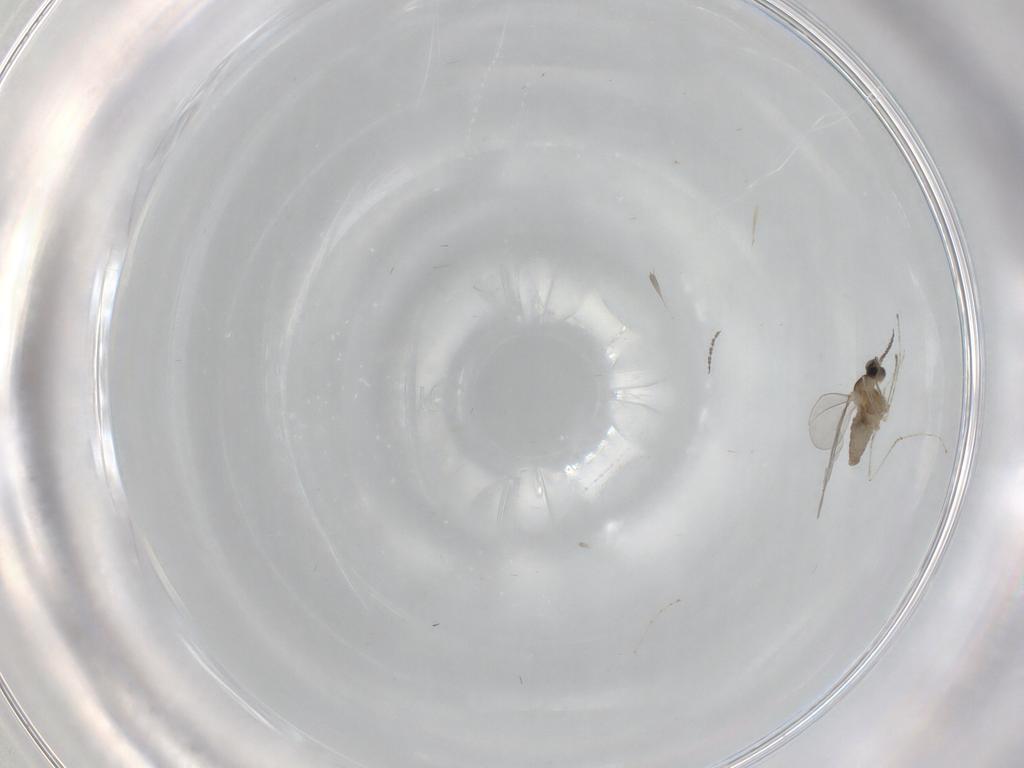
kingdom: Animalia
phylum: Arthropoda
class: Insecta
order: Diptera
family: Cecidomyiidae
